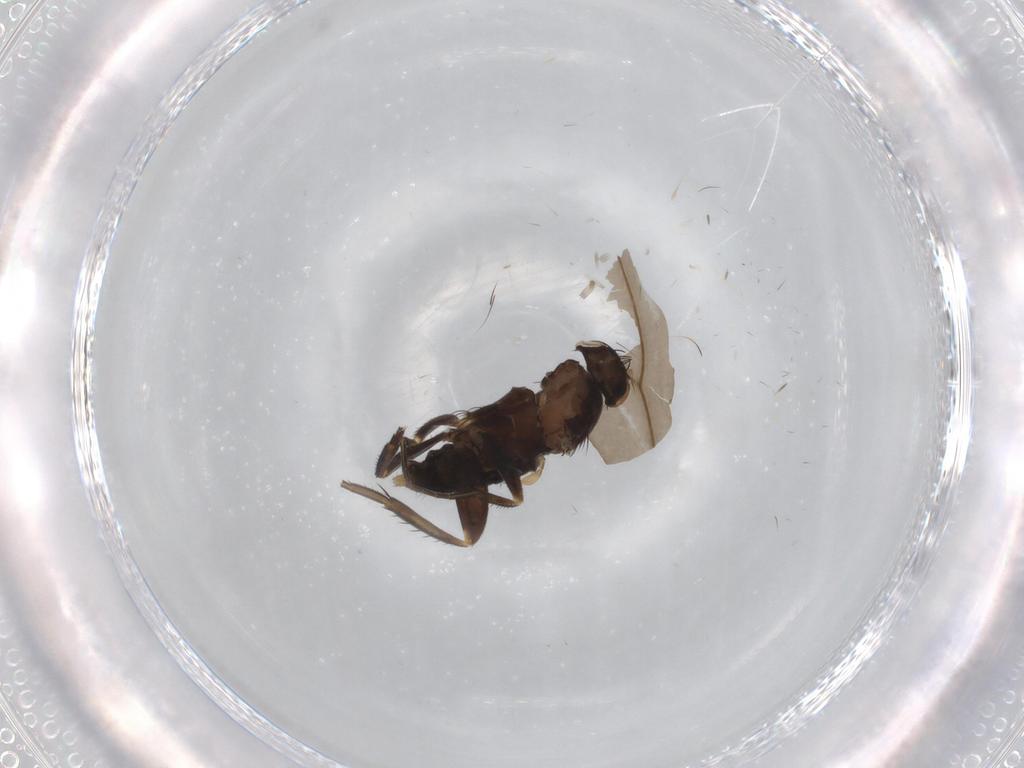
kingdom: Animalia
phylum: Arthropoda
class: Insecta
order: Diptera
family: Phoridae
